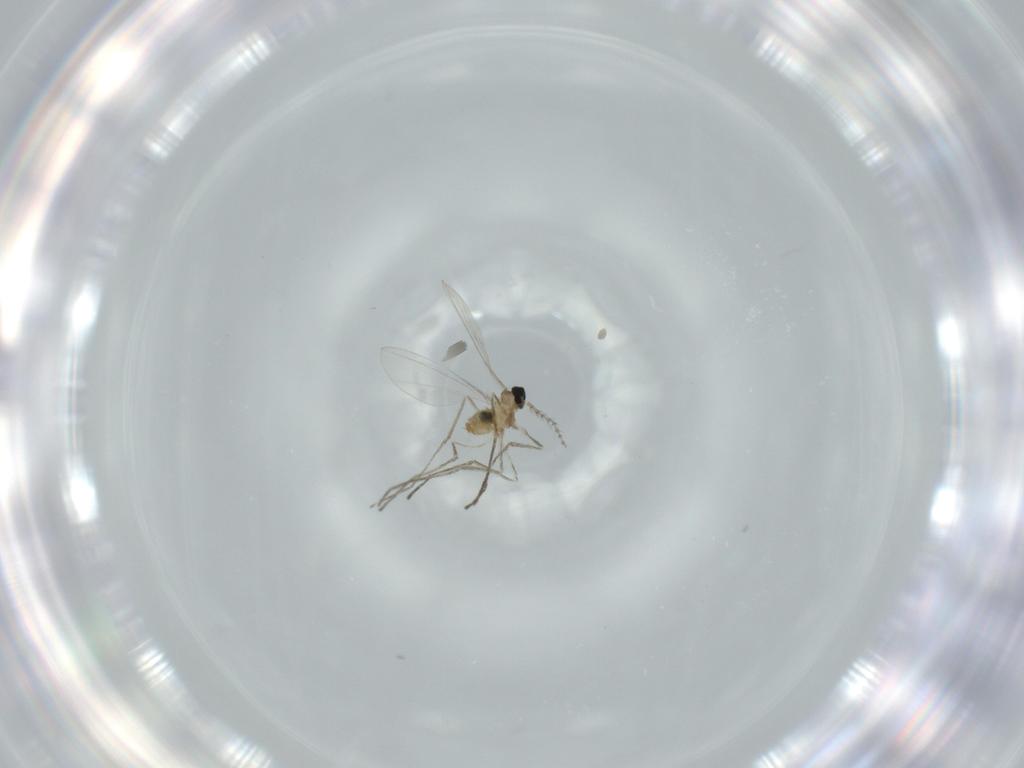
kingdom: Animalia
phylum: Arthropoda
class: Insecta
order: Diptera
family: Cecidomyiidae
